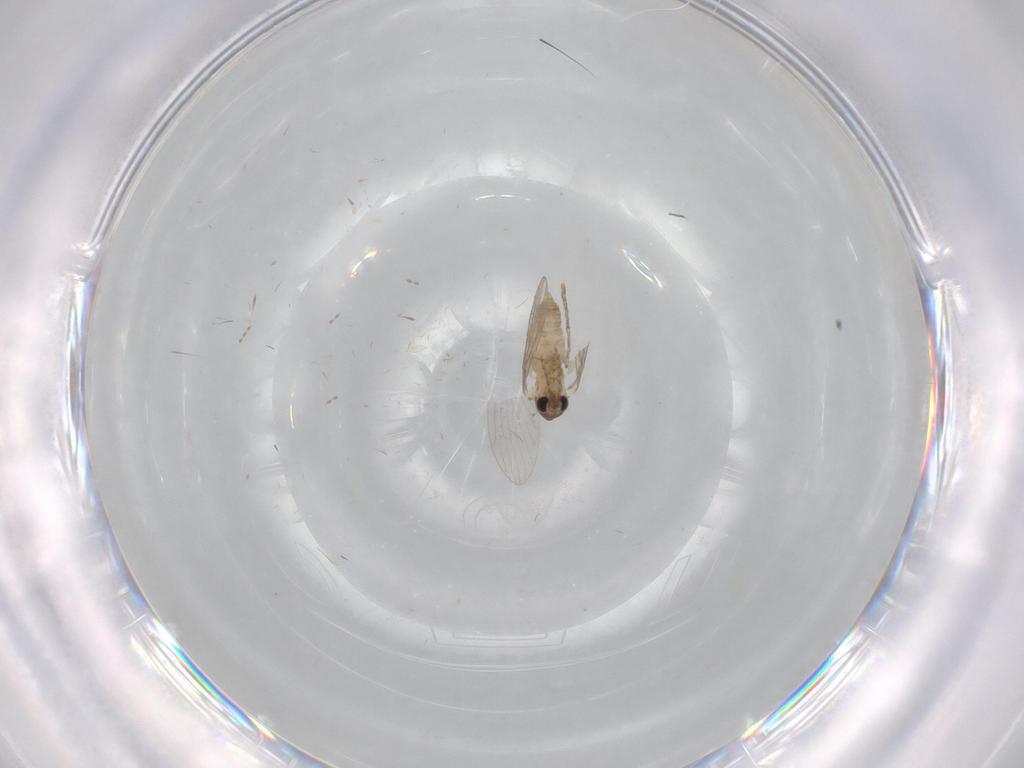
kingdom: Animalia
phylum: Arthropoda
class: Insecta
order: Diptera
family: Psychodidae
